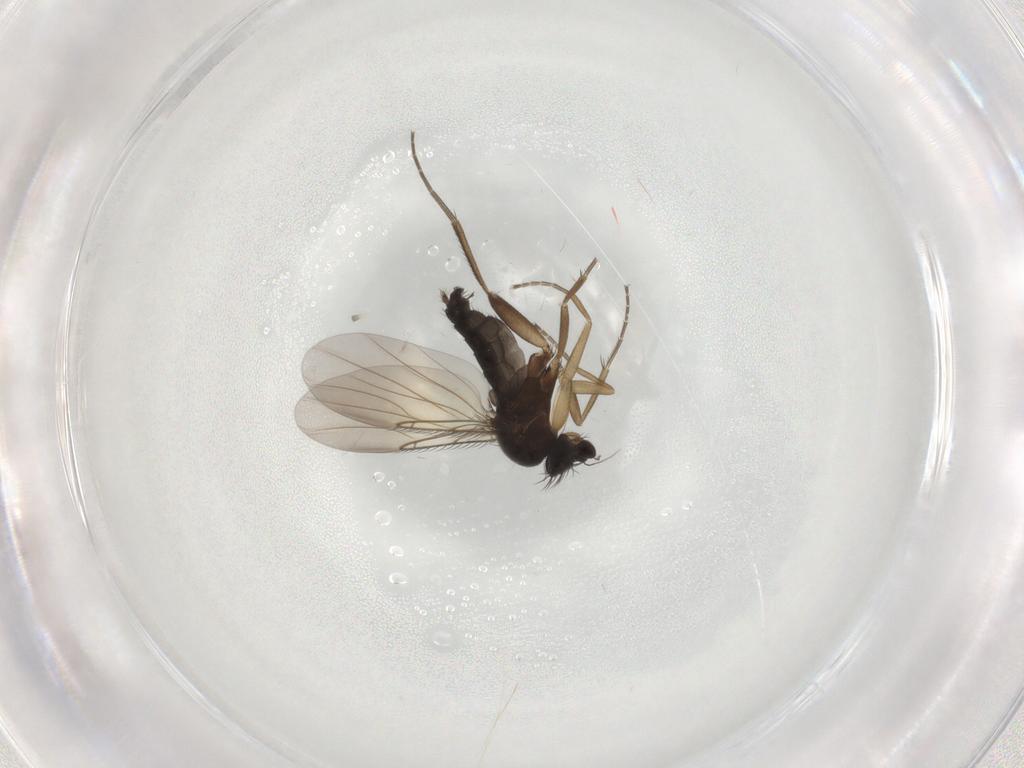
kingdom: Animalia
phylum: Arthropoda
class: Insecta
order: Diptera
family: Phoridae
